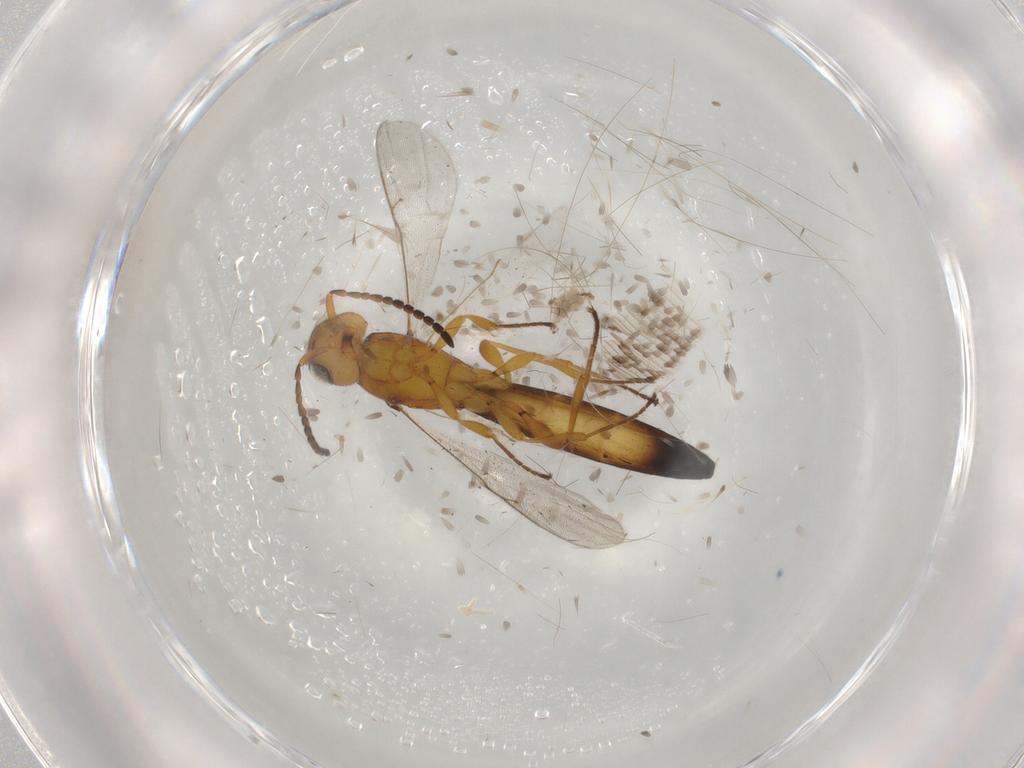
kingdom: Animalia
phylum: Arthropoda
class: Insecta
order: Hymenoptera
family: Scelionidae
